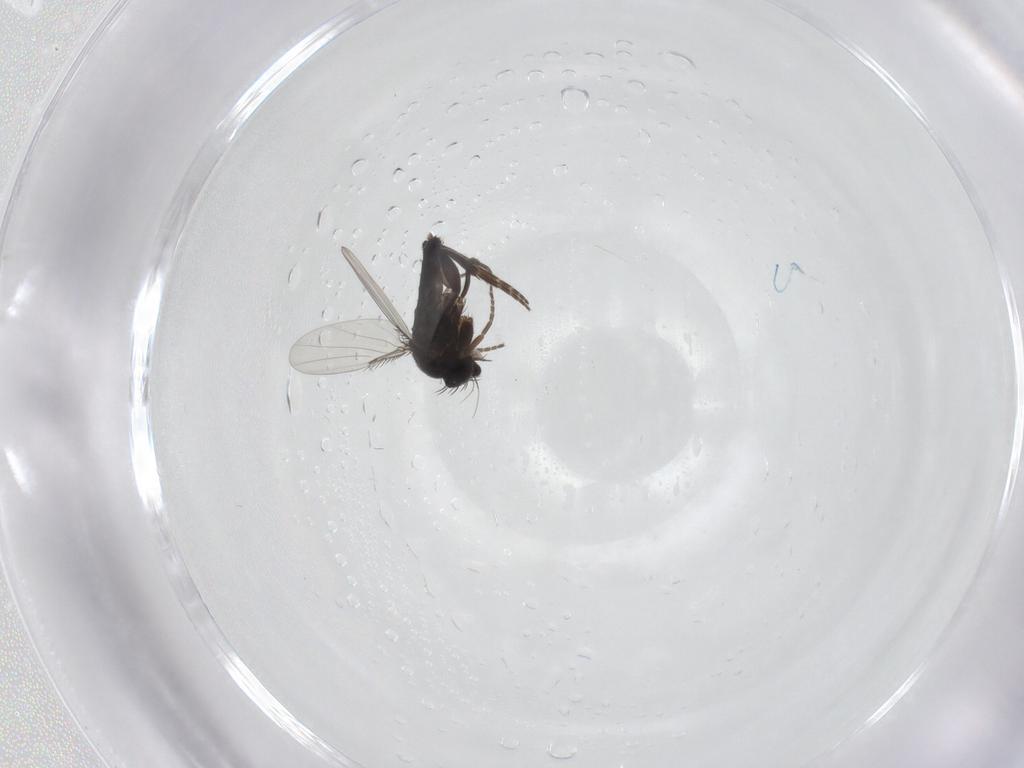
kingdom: Animalia
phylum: Arthropoda
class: Insecta
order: Diptera
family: Phoridae
